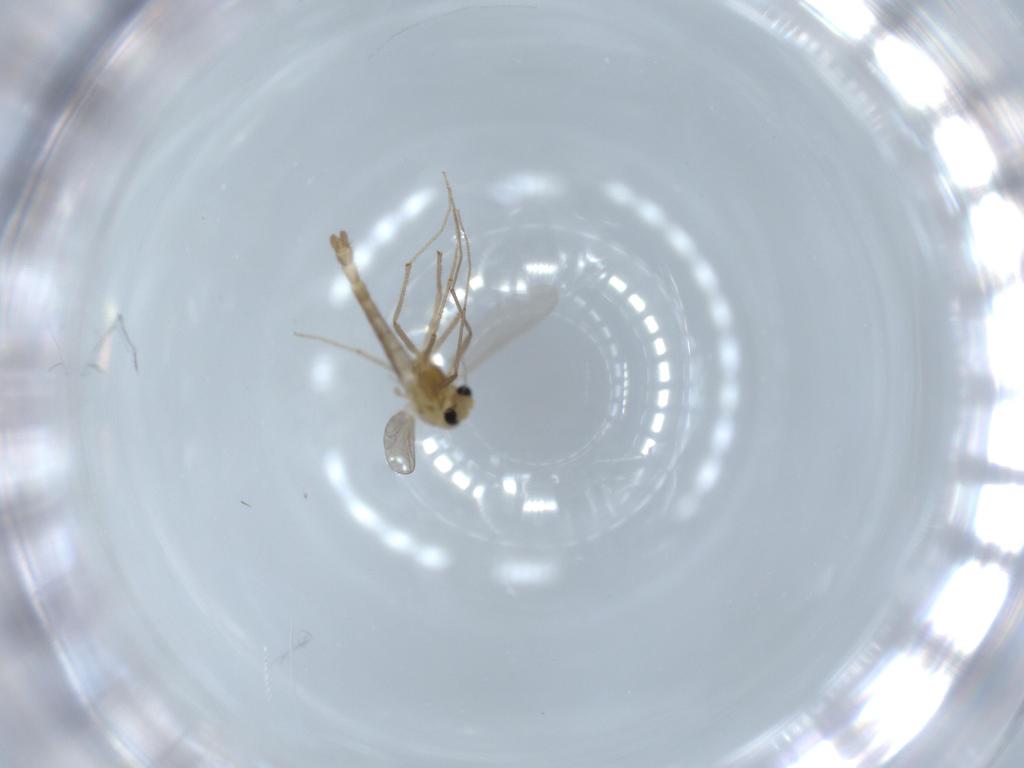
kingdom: Animalia
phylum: Arthropoda
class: Insecta
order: Diptera
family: Chironomidae
